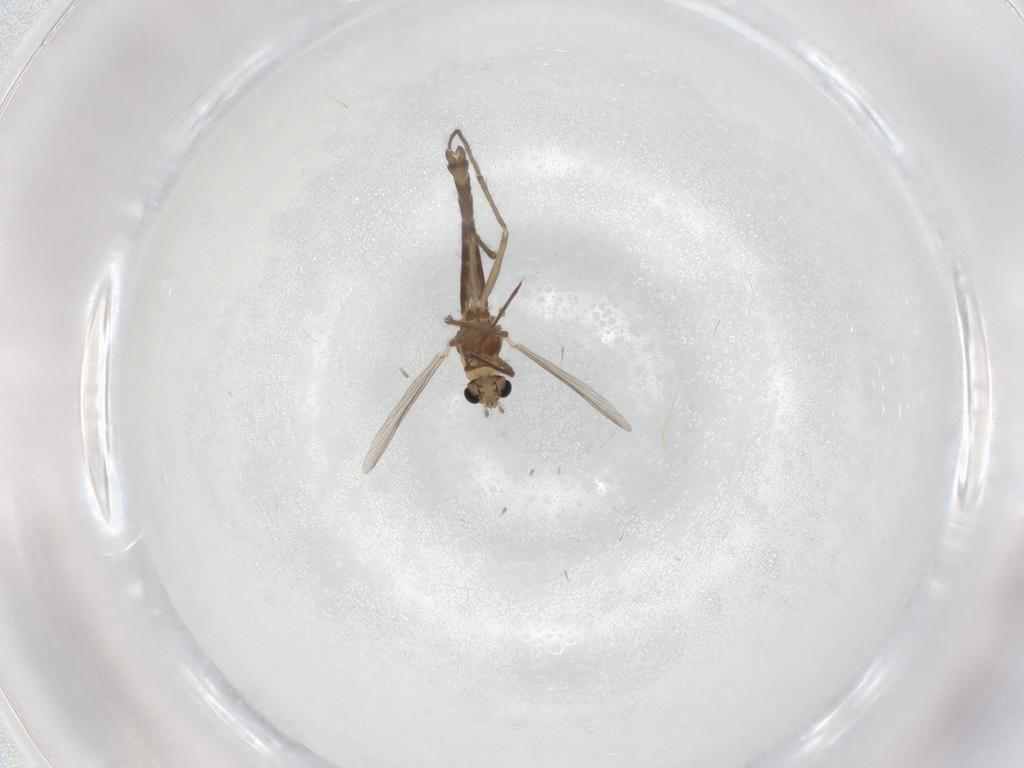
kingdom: Animalia
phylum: Arthropoda
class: Insecta
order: Diptera
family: Chironomidae
